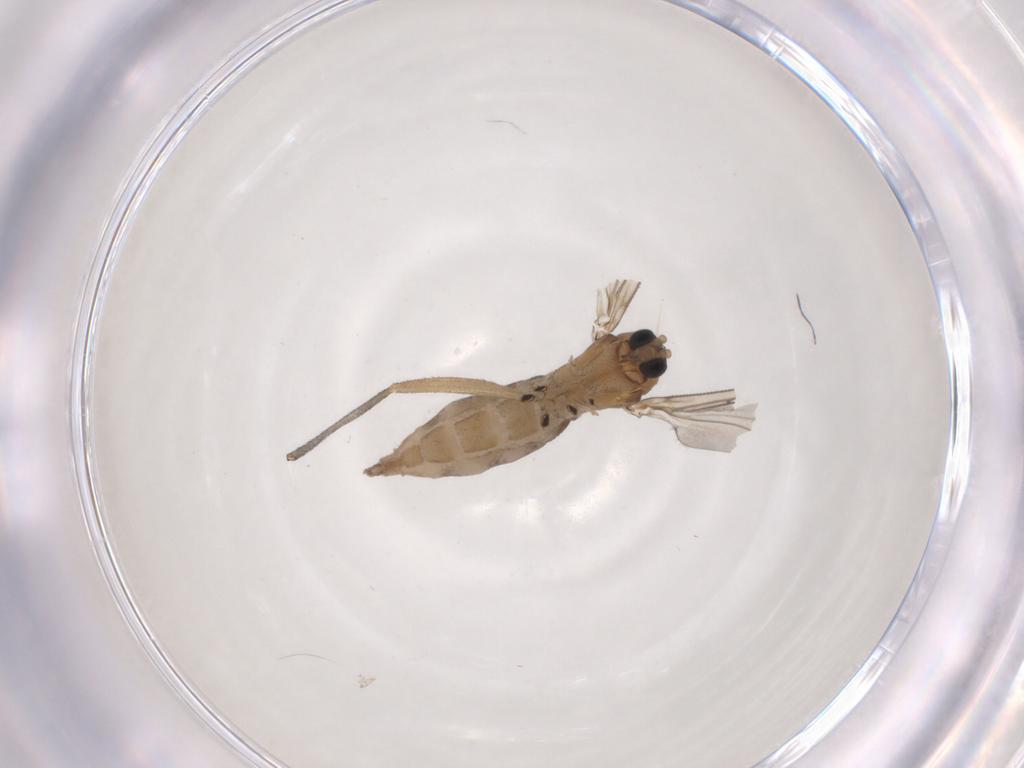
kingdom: Animalia
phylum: Arthropoda
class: Insecta
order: Diptera
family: Sciaridae
